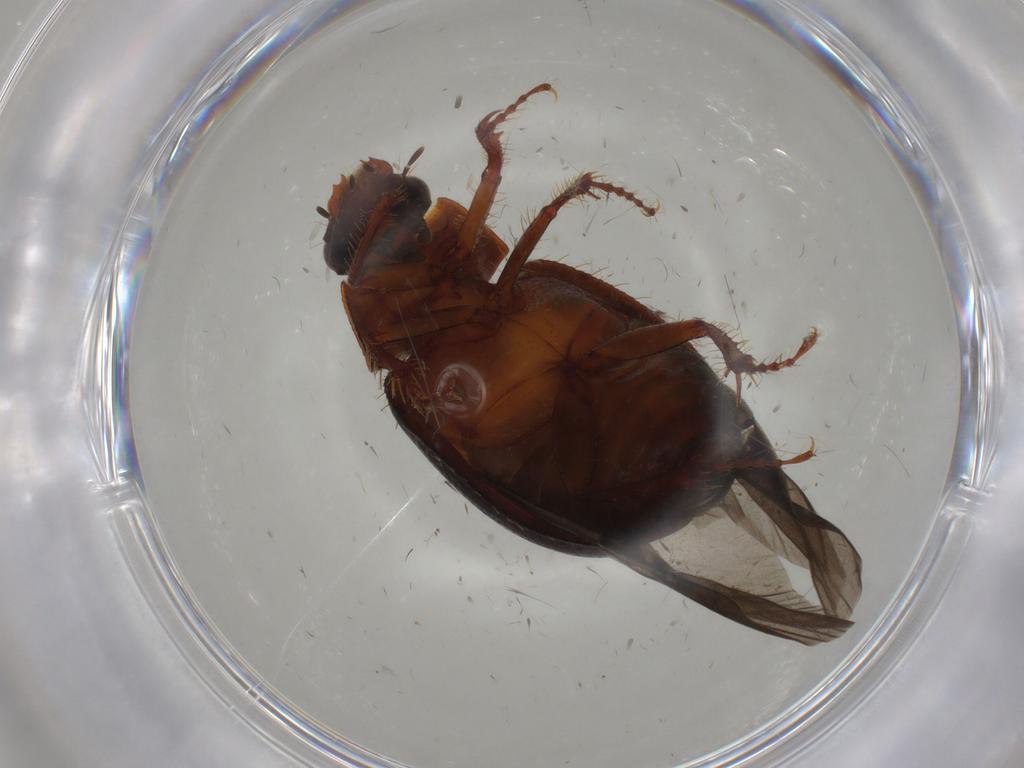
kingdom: Animalia
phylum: Arthropoda
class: Insecta
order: Coleoptera
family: Hybosoridae
